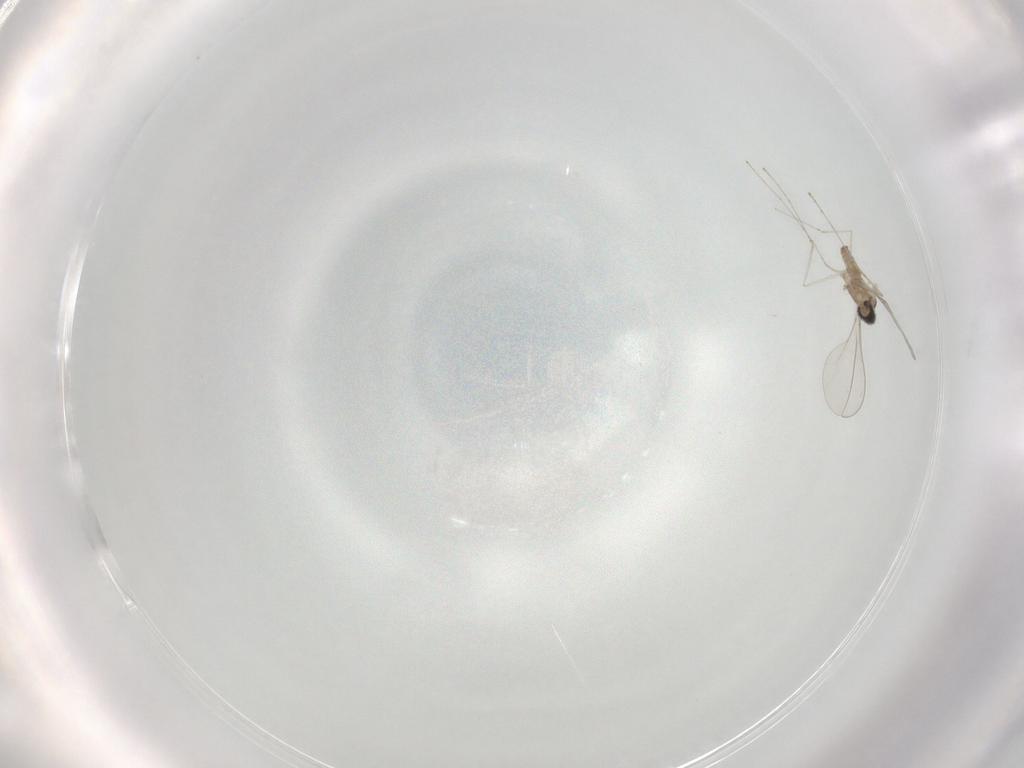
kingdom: Animalia
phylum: Arthropoda
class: Insecta
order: Diptera
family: Cecidomyiidae
